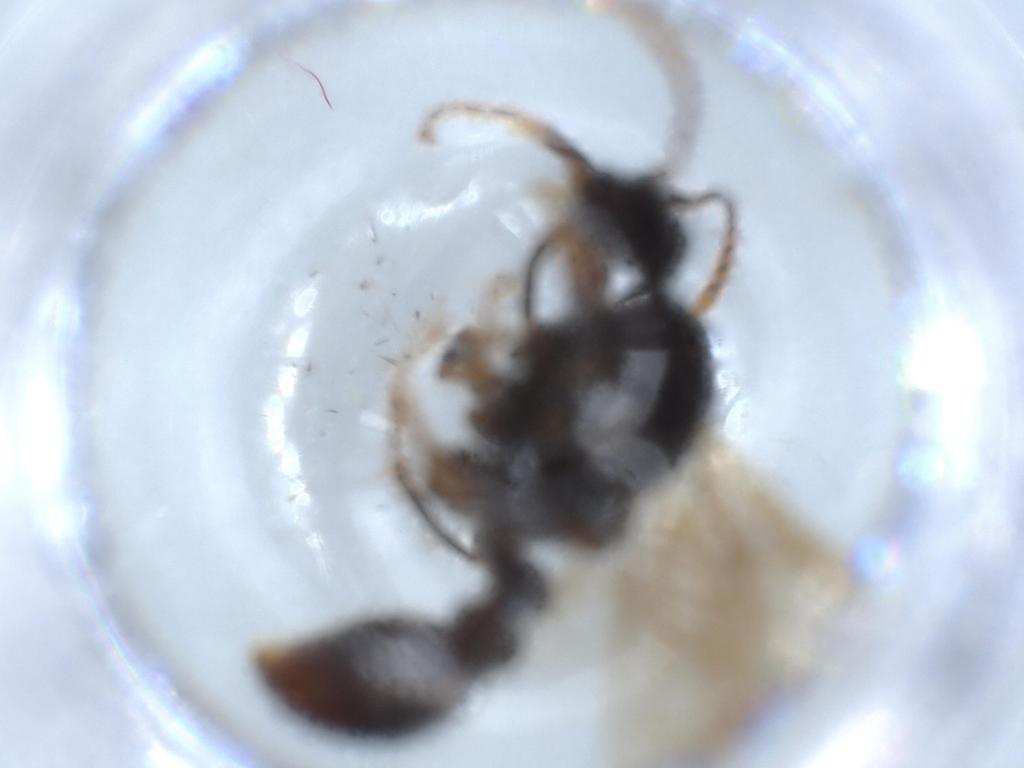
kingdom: Animalia
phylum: Arthropoda
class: Insecta
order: Hymenoptera
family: Formicidae
